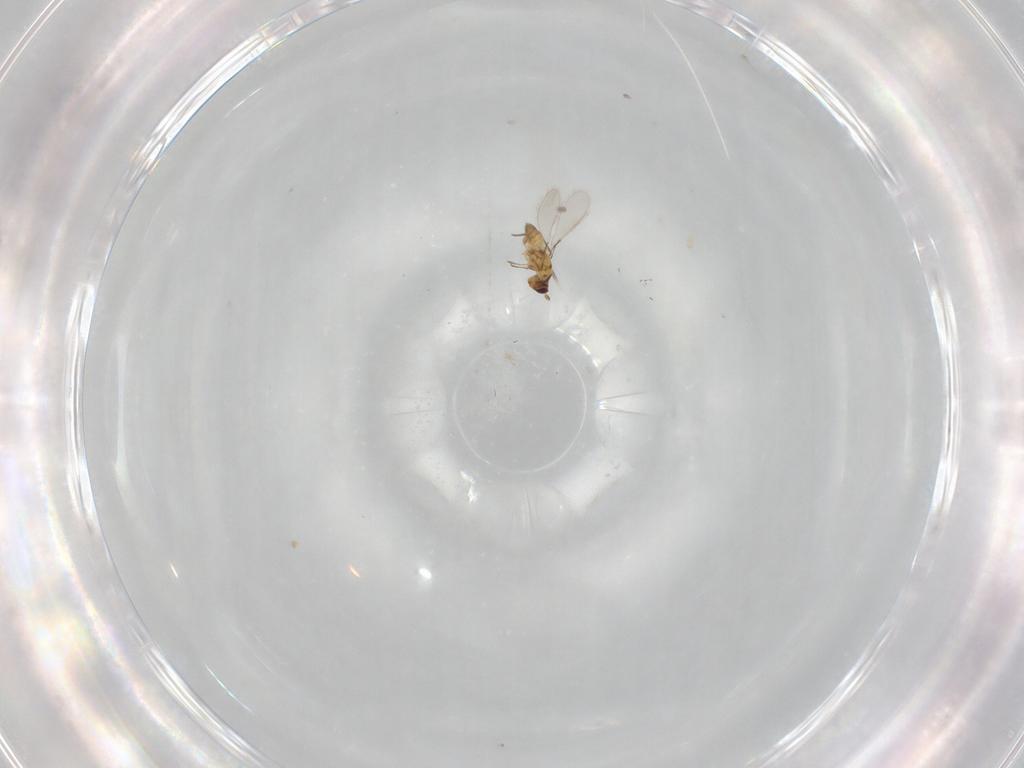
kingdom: Animalia
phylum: Arthropoda
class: Insecta
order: Hymenoptera
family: Mymaridae
